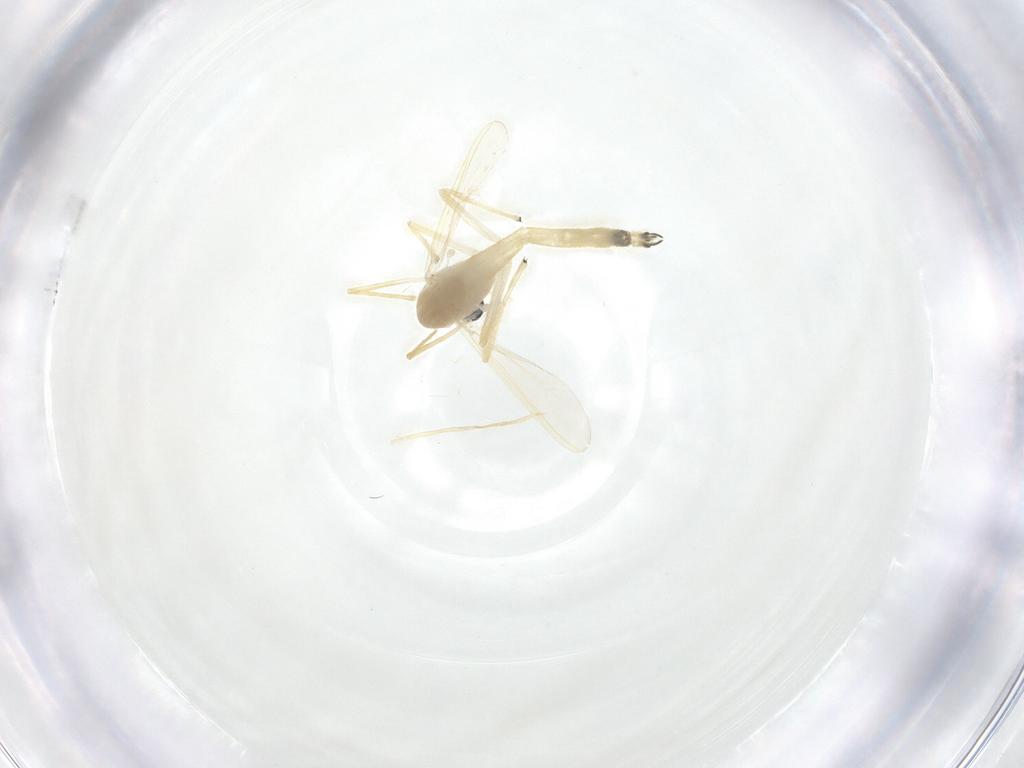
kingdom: Animalia
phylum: Arthropoda
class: Insecta
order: Diptera
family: Chironomidae
